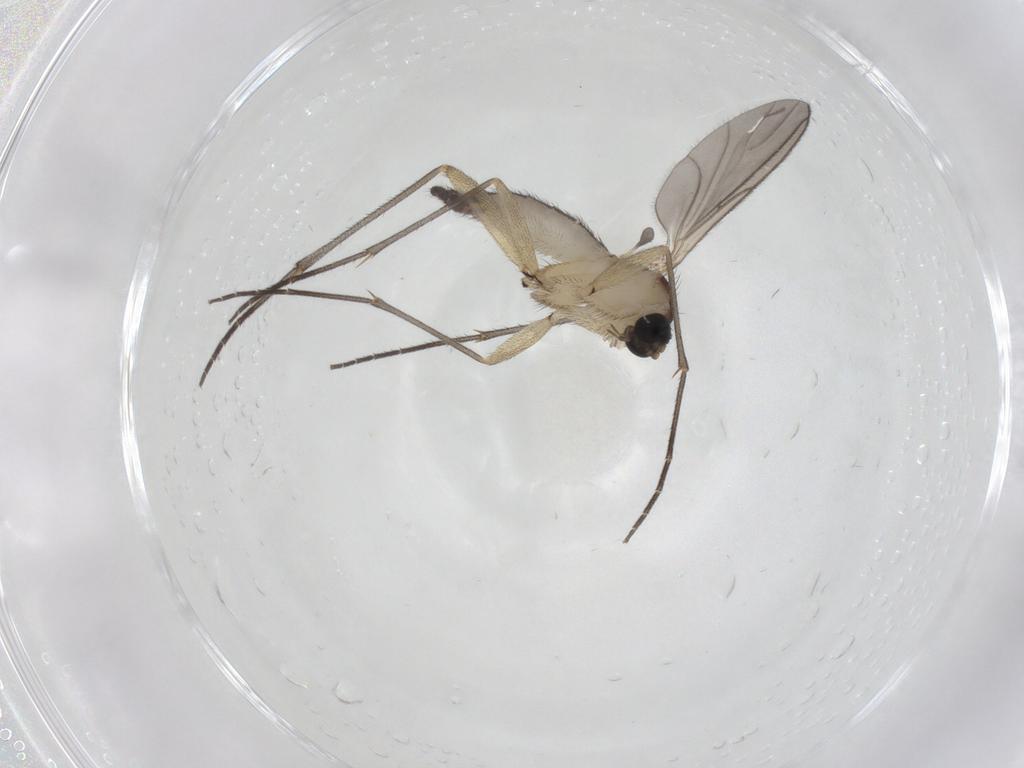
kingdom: Animalia
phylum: Arthropoda
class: Insecta
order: Diptera
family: Sciaridae
